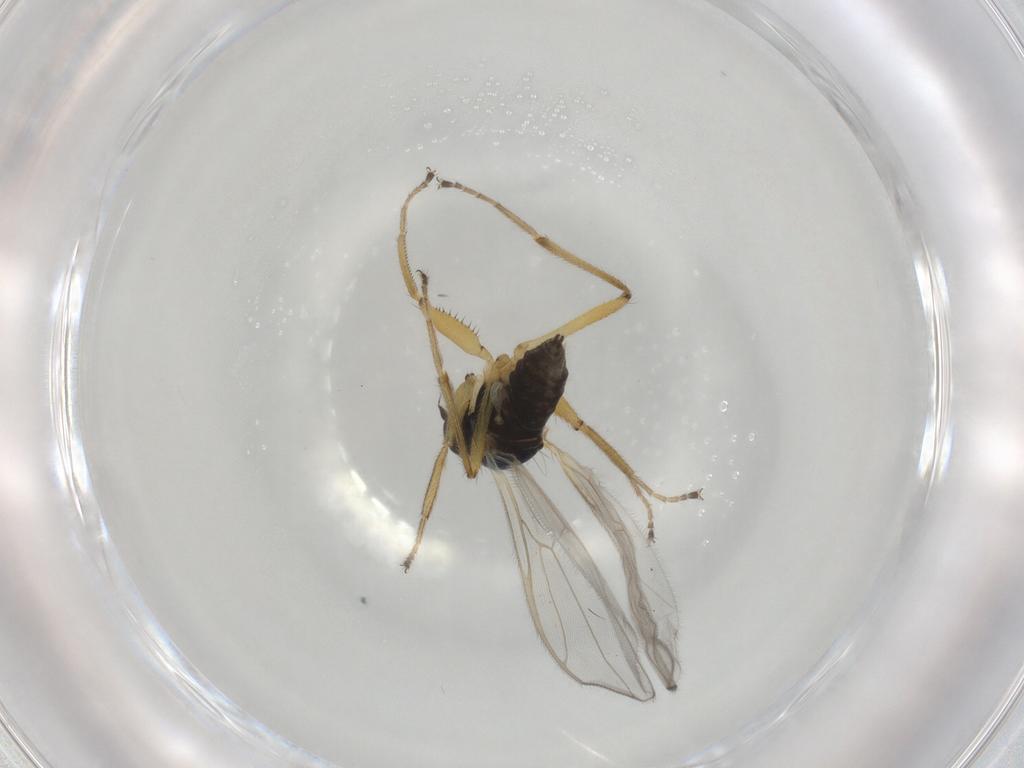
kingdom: Animalia
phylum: Arthropoda
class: Insecta
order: Diptera
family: Hybotidae
